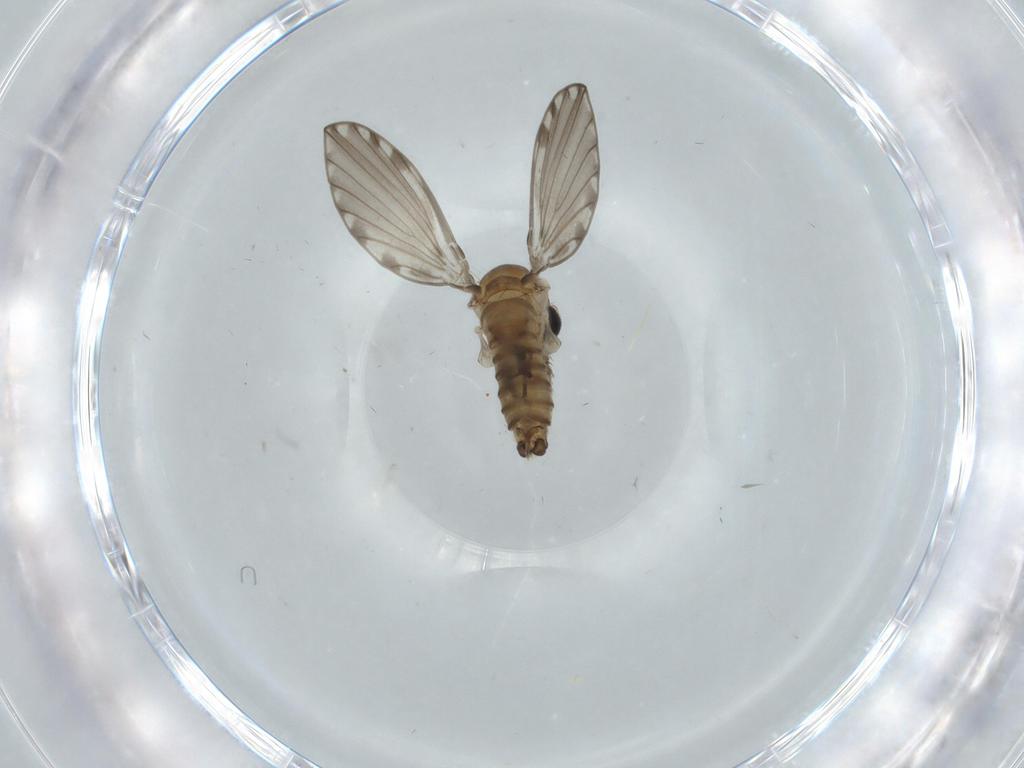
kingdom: Animalia
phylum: Arthropoda
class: Insecta
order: Diptera
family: Chironomidae
